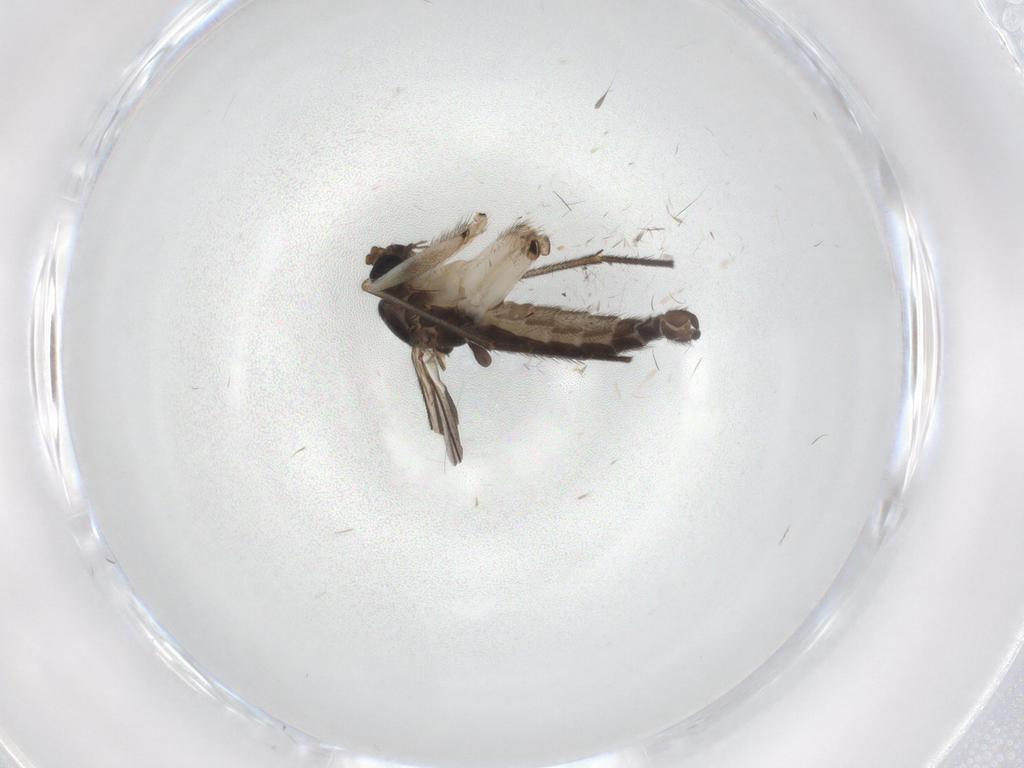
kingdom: Animalia
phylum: Arthropoda
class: Insecta
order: Diptera
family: Sciaridae
